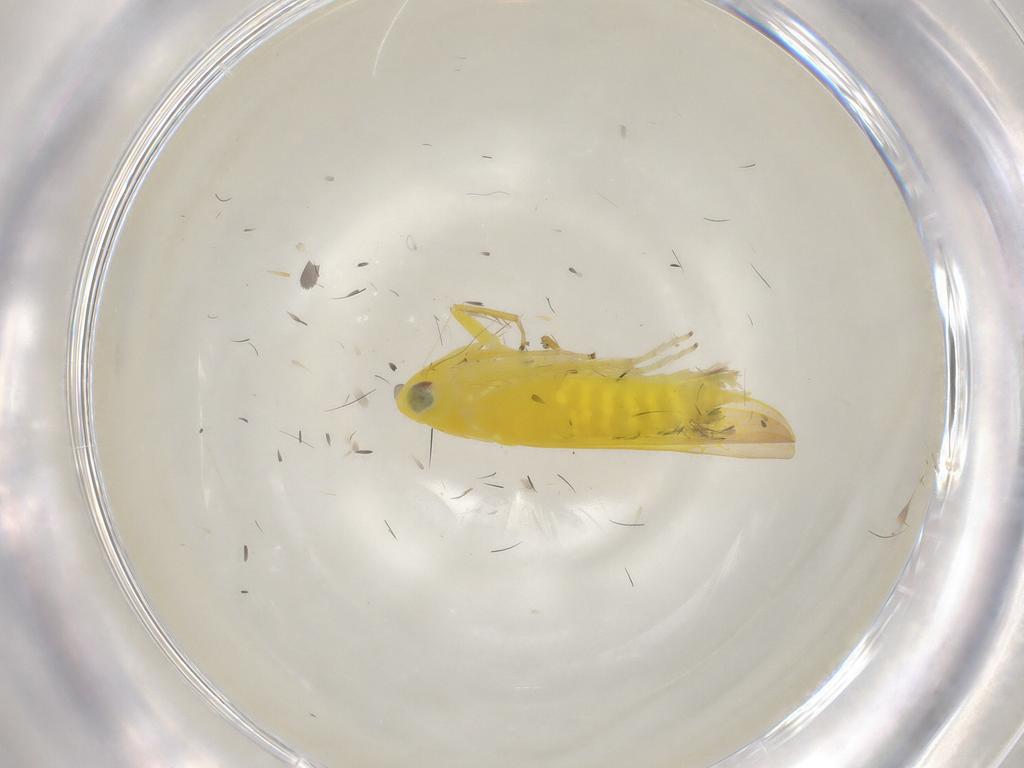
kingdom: Animalia
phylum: Arthropoda
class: Insecta
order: Hemiptera
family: Cicadellidae
